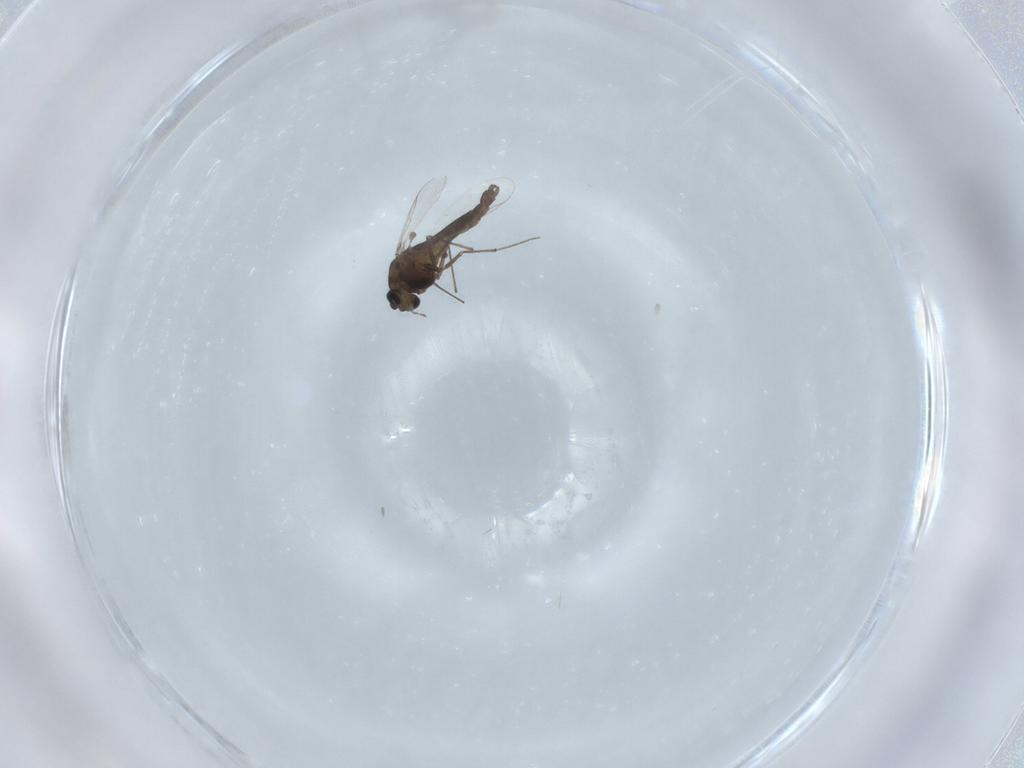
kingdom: Animalia
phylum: Arthropoda
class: Insecta
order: Diptera
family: Chironomidae
